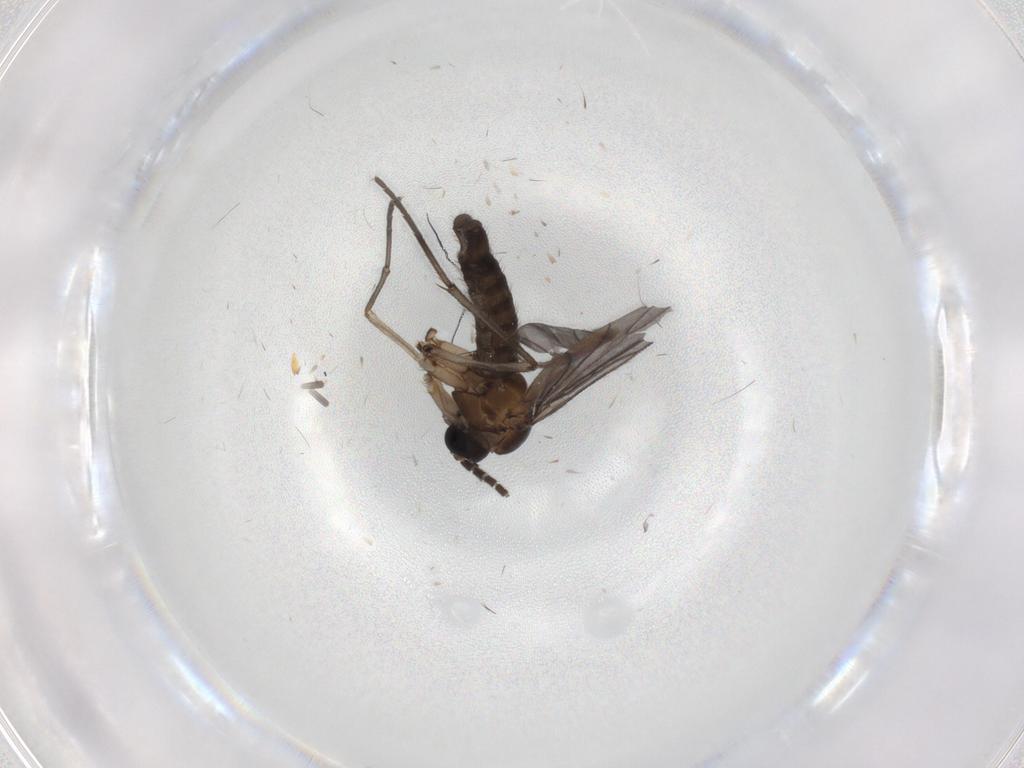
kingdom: Animalia
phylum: Arthropoda
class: Insecta
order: Diptera
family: Sciaridae
